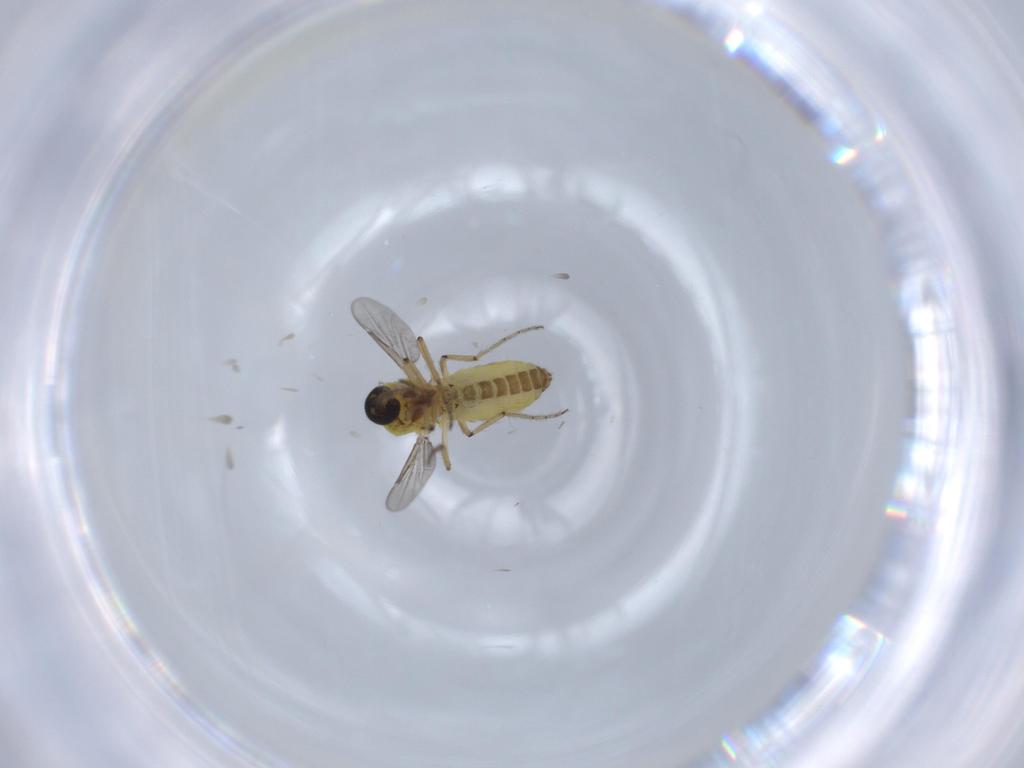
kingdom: Animalia
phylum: Arthropoda
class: Insecta
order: Diptera
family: Ceratopogonidae
